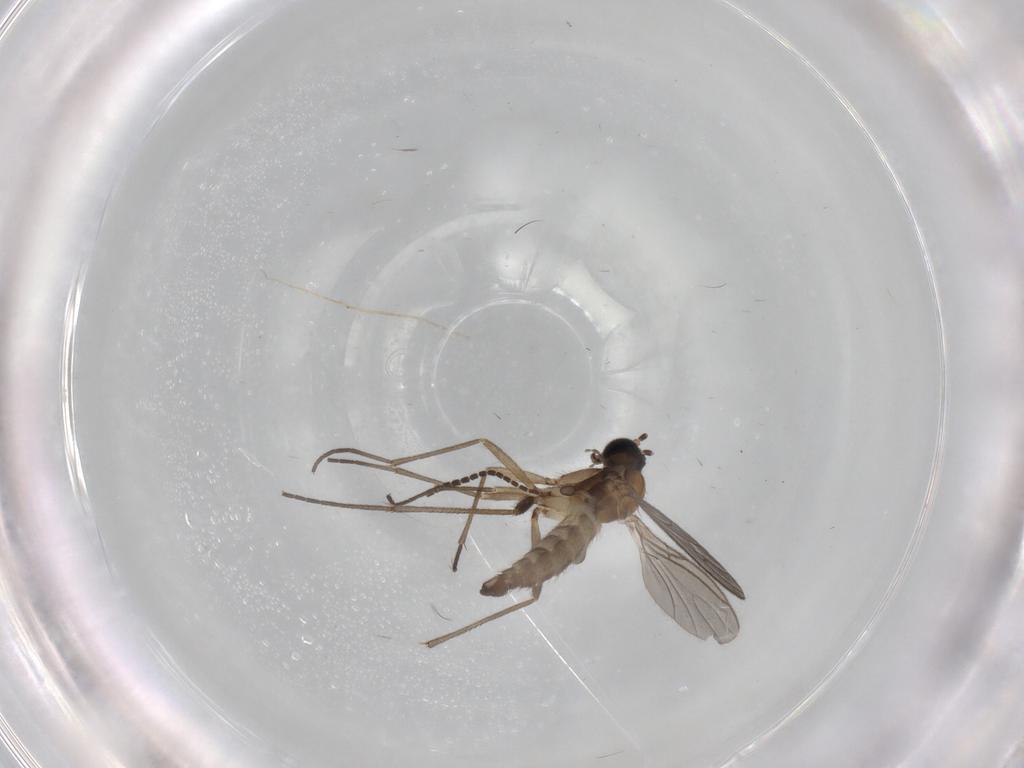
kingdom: Animalia
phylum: Arthropoda
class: Insecta
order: Diptera
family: Sciaridae
